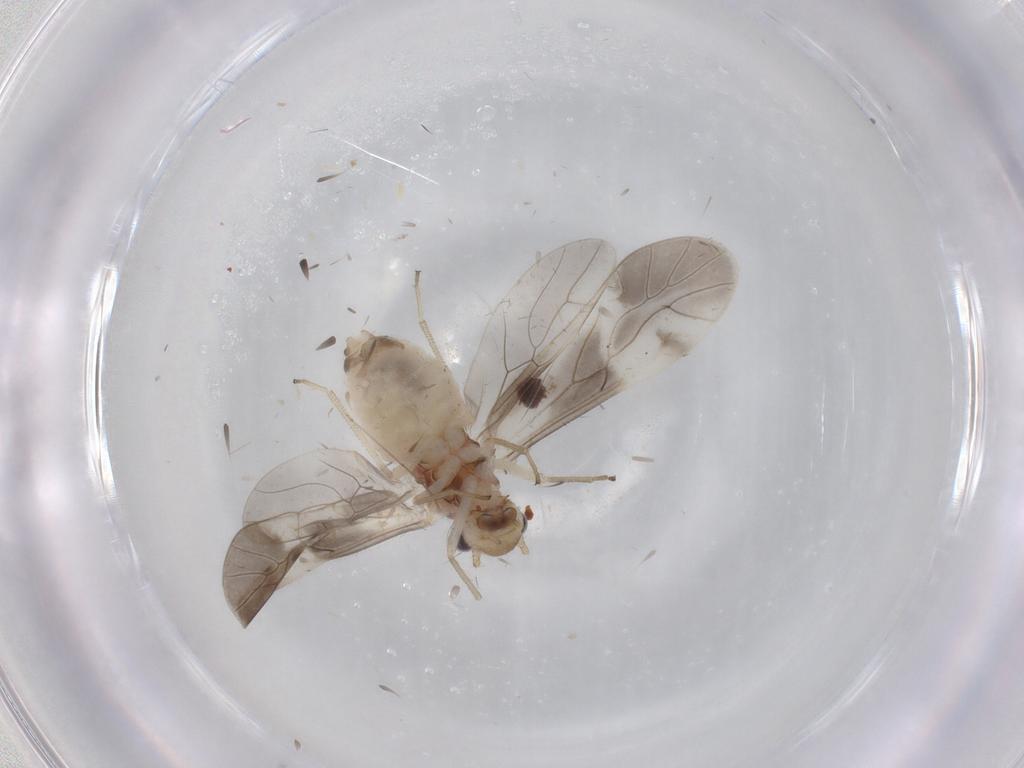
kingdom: Animalia
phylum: Arthropoda
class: Insecta
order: Psocodea
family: Caeciliusidae
